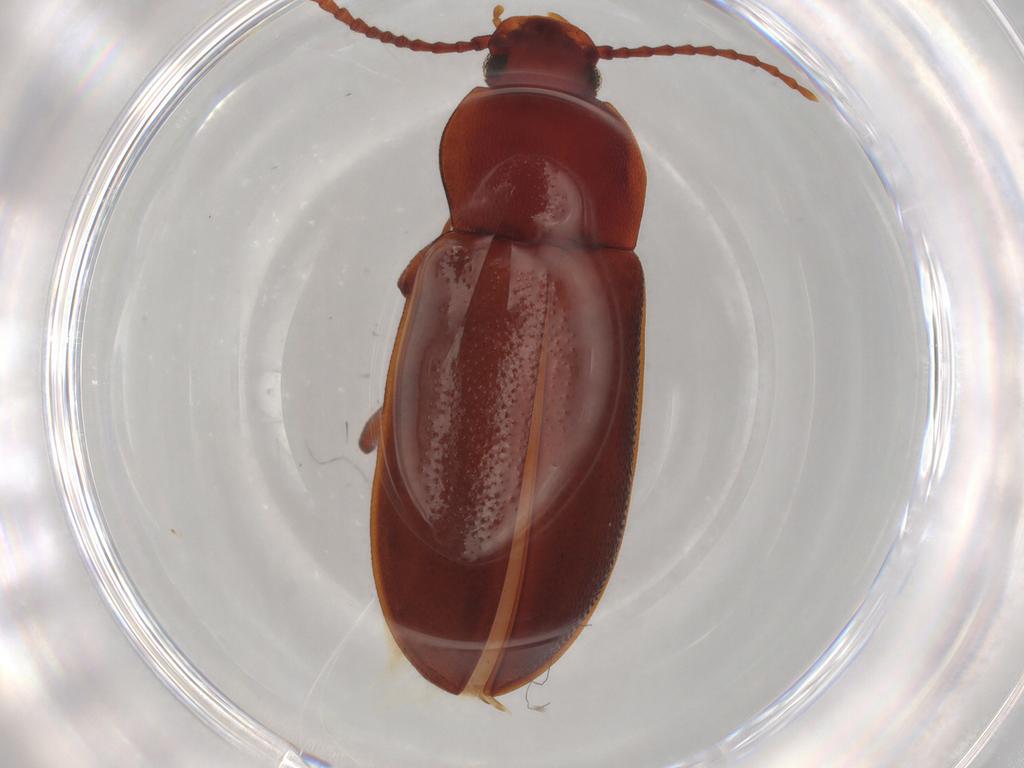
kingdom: Animalia
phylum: Arthropoda
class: Insecta
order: Coleoptera
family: Tenebrionidae
